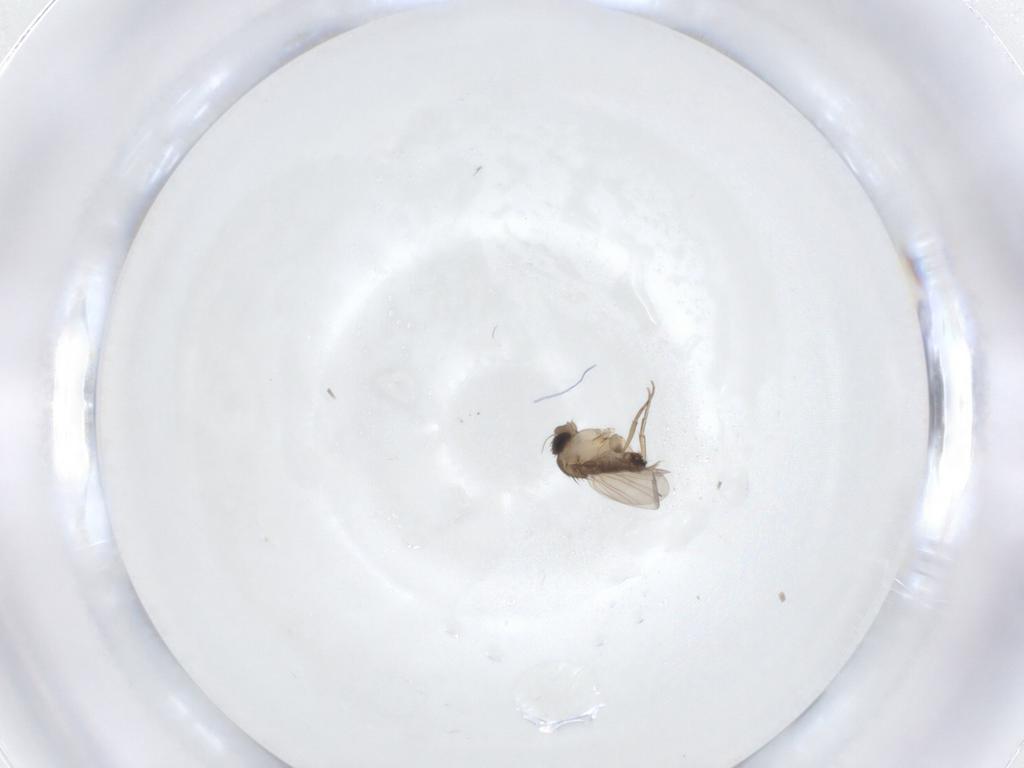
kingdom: Animalia
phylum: Arthropoda
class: Insecta
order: Diptera
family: Phoridae
